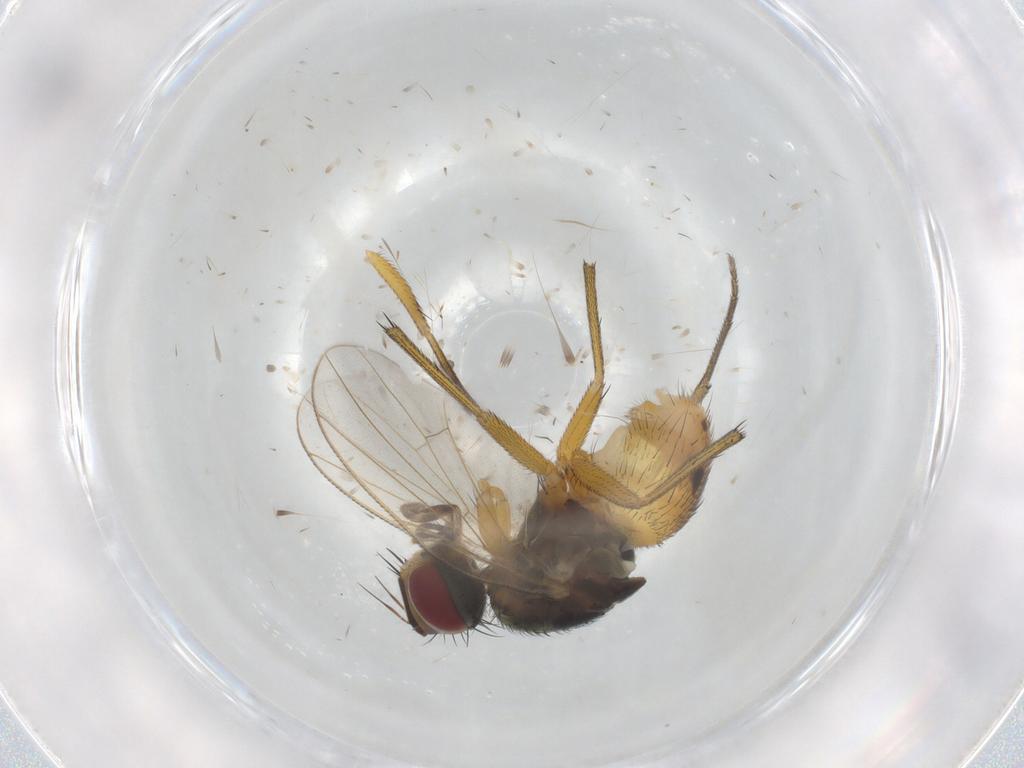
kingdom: Animalia
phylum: Arthropoda
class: Insecta
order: Diptera
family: Muscidae
